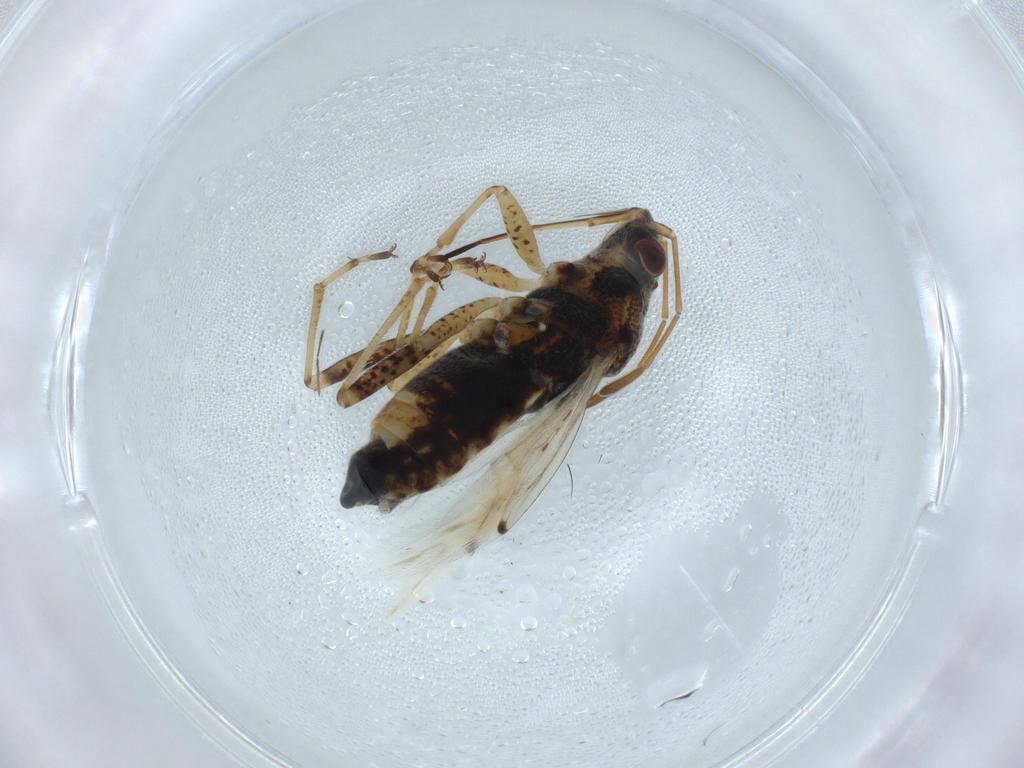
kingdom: Animalia
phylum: Arthropoda
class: Insecta
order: Hemiptera
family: Lygaeidae
